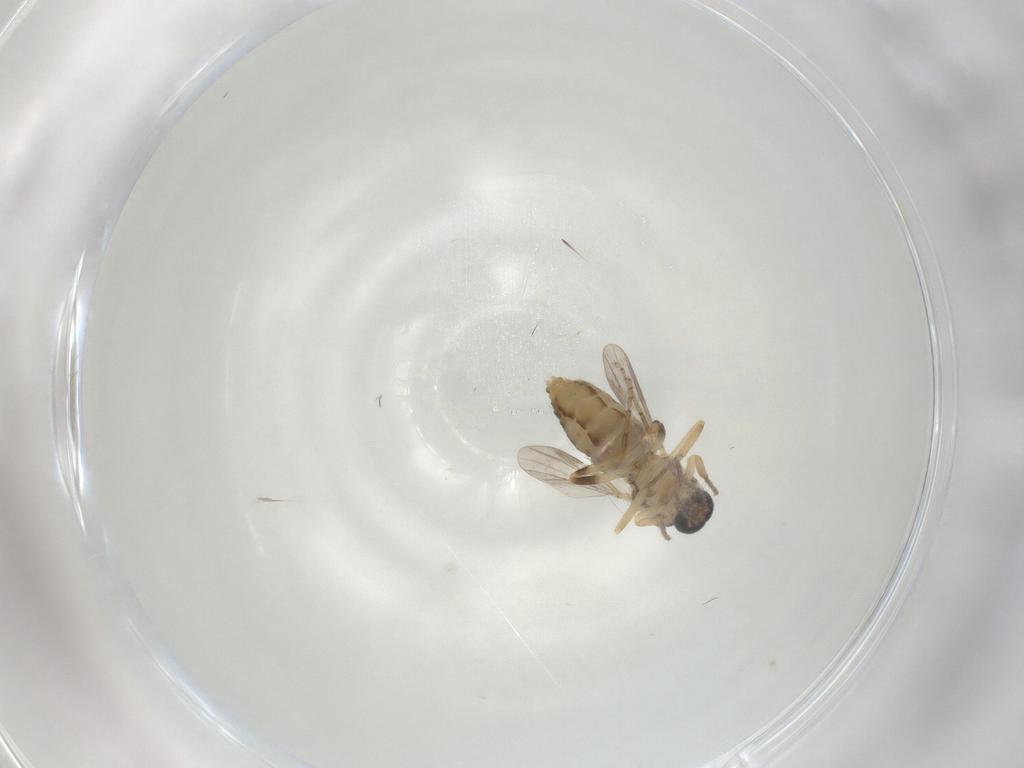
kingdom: Animalia
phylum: Arthropoda
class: Insecta
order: Diptera
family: Ceratopogonidae
